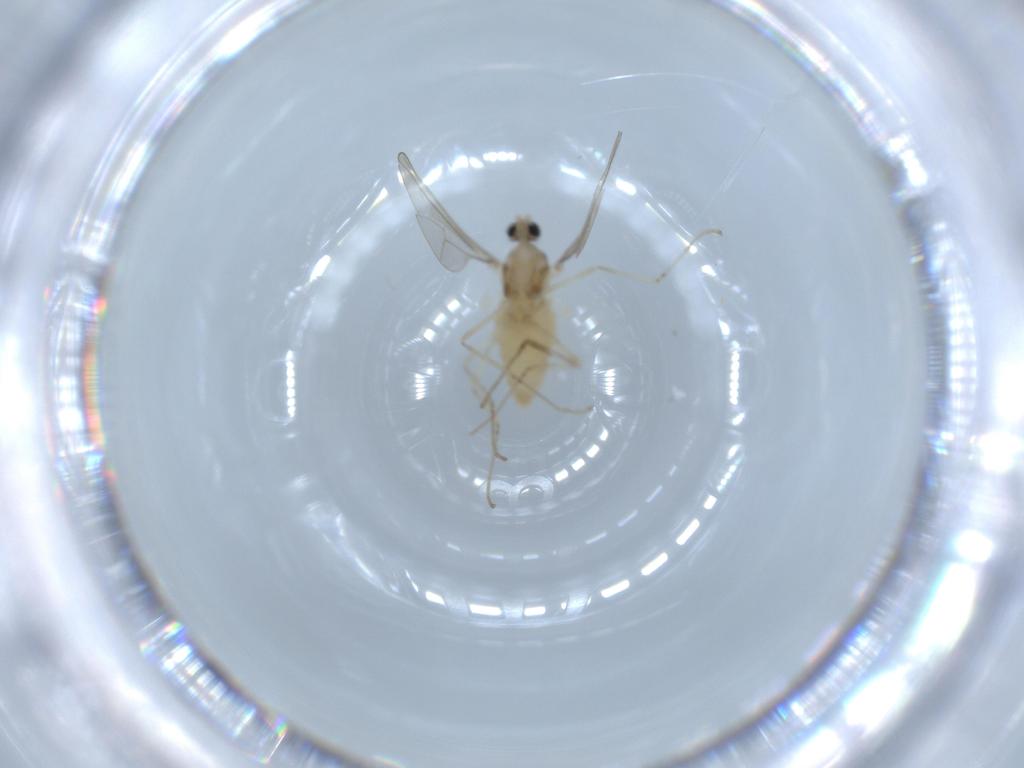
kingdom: Animalia
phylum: Arthropoda
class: Insecta
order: Diptera
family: Cecidomyiidae
